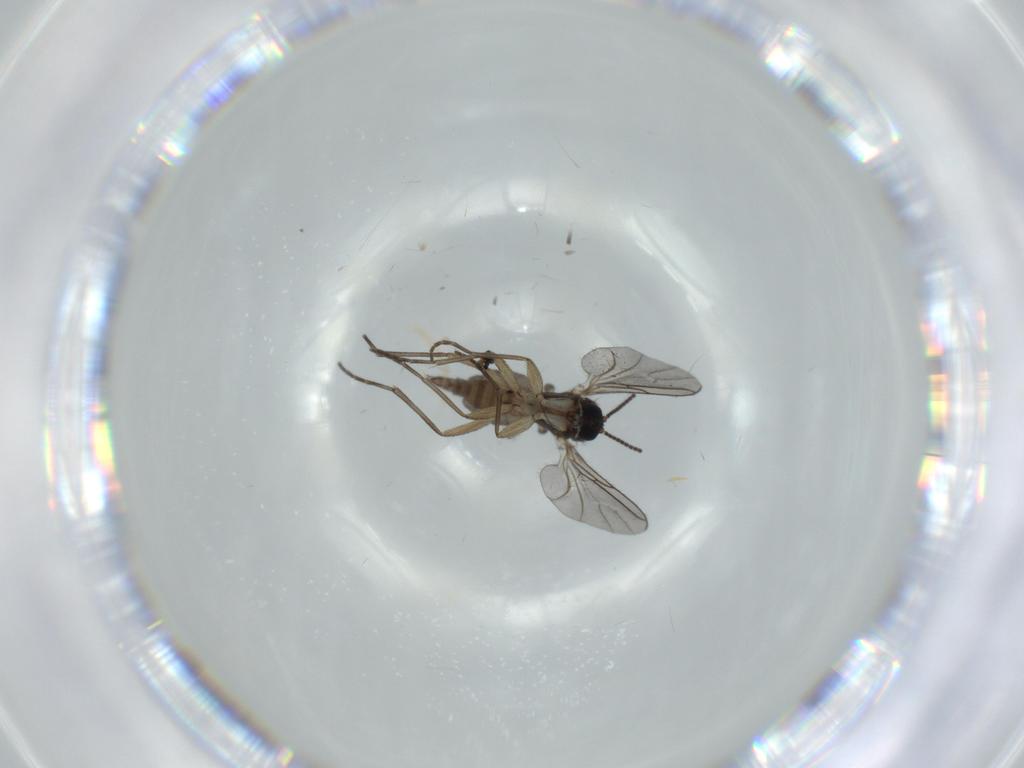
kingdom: Animalia
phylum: Arthropoda
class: Insecta
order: Diptera
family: Sciaridae
